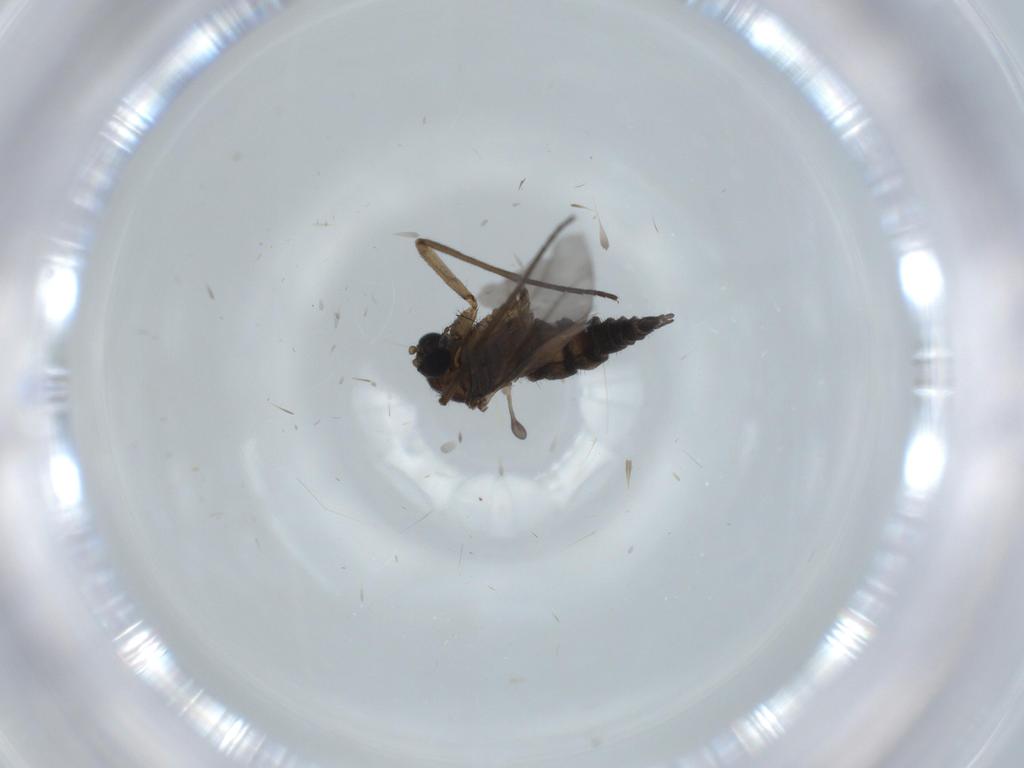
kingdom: Animalia
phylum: Arthropoda
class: Insecta
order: Diptera
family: Sciaridae
